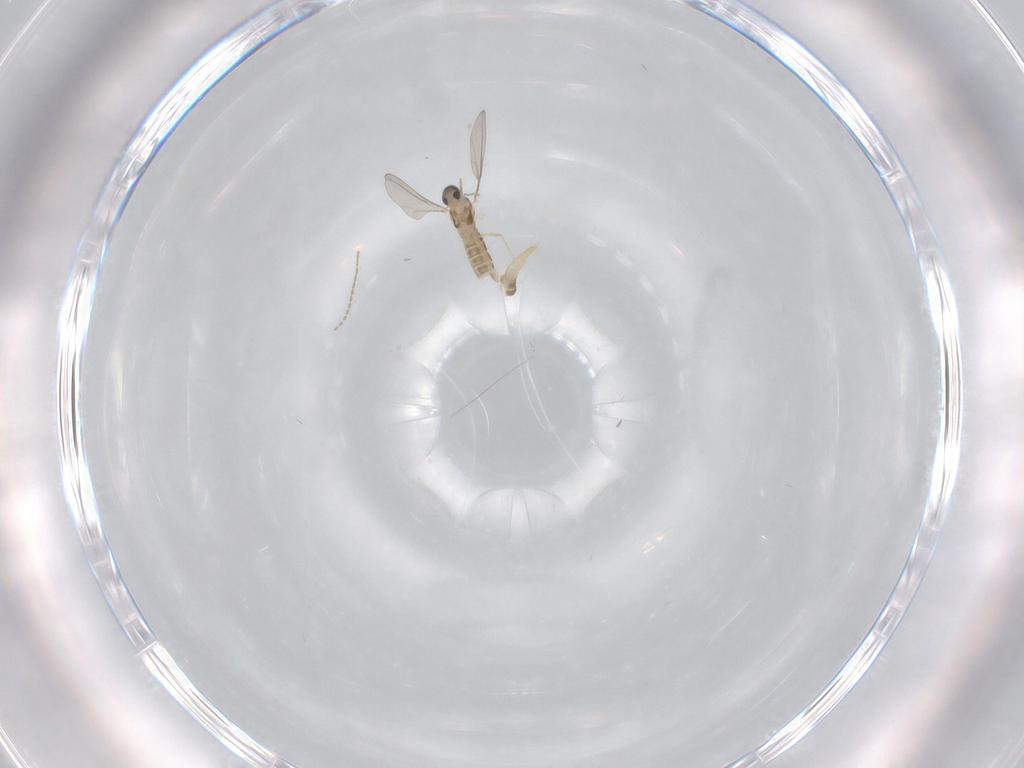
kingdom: Animalia
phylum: Arthropoda
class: Insecta
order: Diptera
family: Cecidomyiidae
